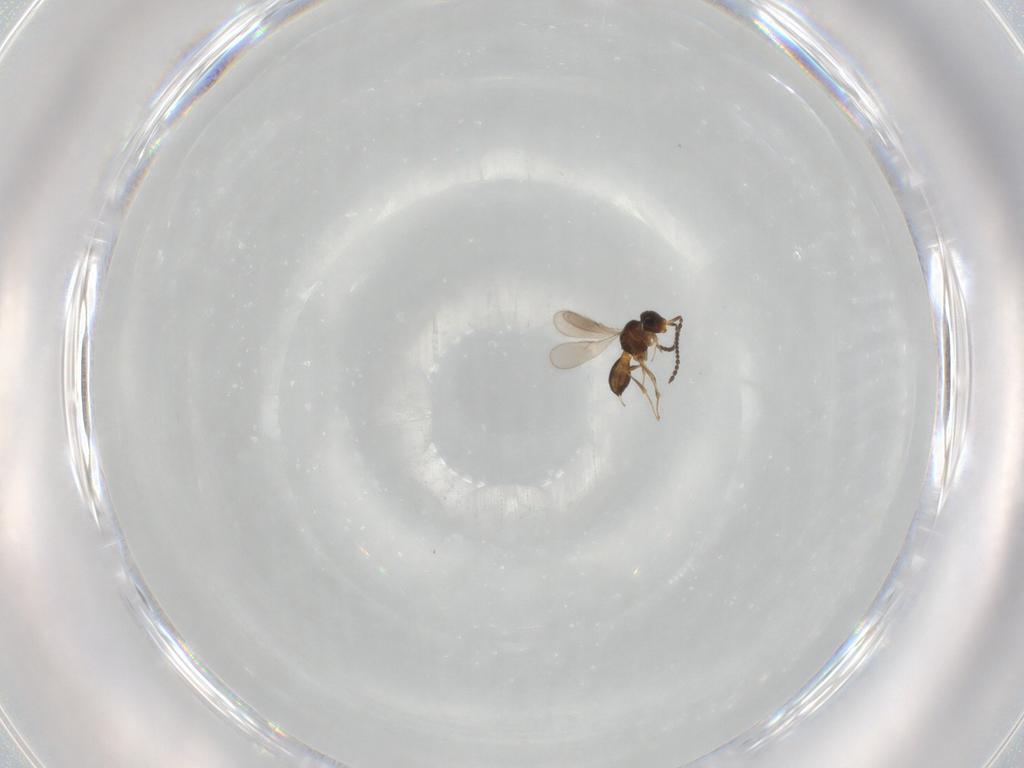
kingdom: Animalia
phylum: Arthropoda
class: Insecta
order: Hymenoptera
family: Scelionidae
